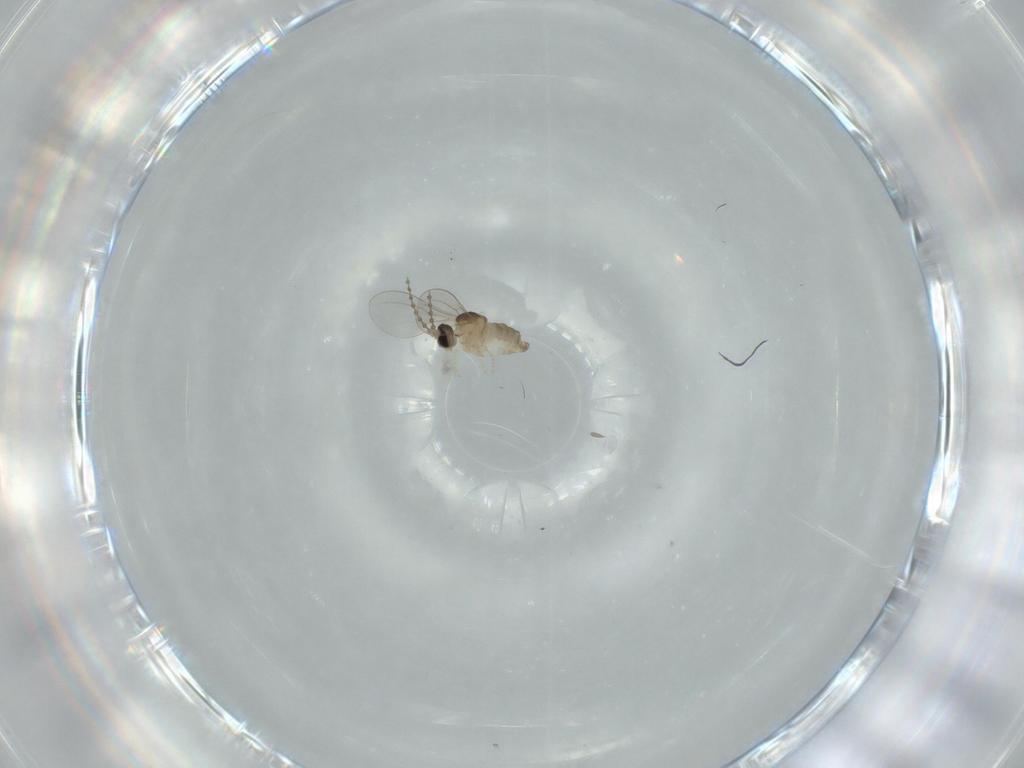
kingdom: Animalia
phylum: Arthropoda
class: Insecta
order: Diptera
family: Cecidomyiidae
